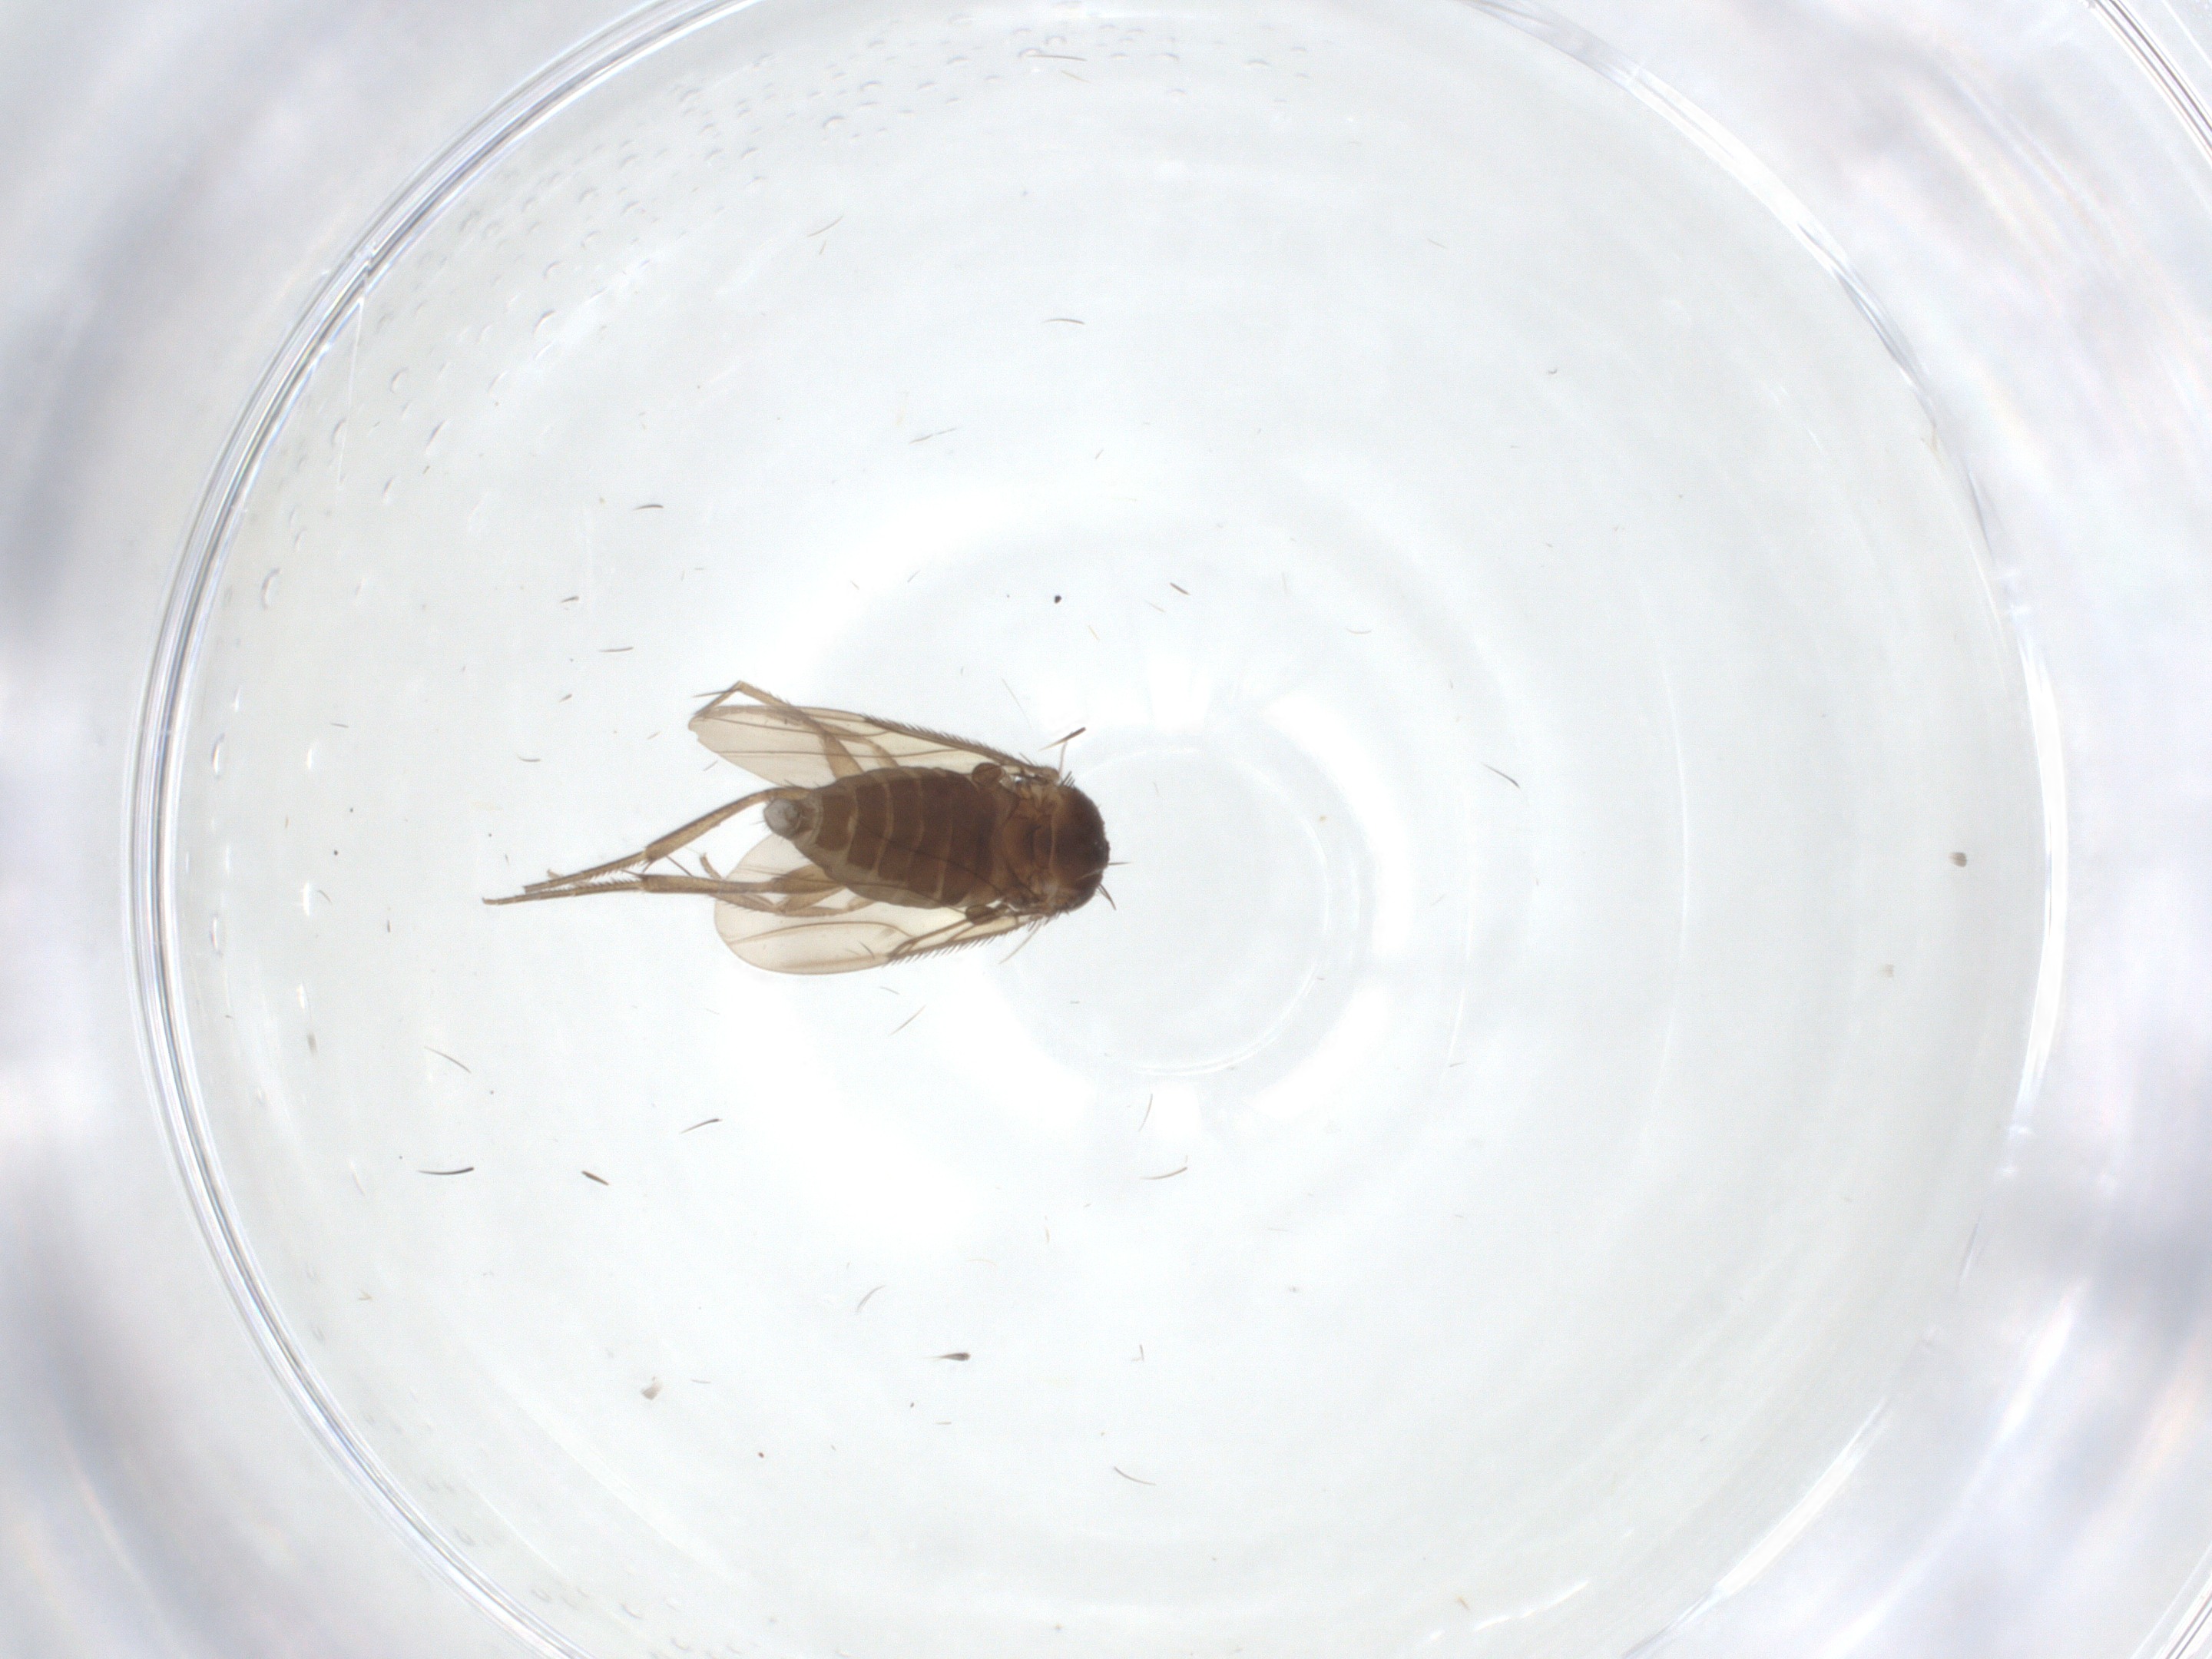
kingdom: Animalia
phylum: Arthropoda
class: Insecta
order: Diptera
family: Phoridae
